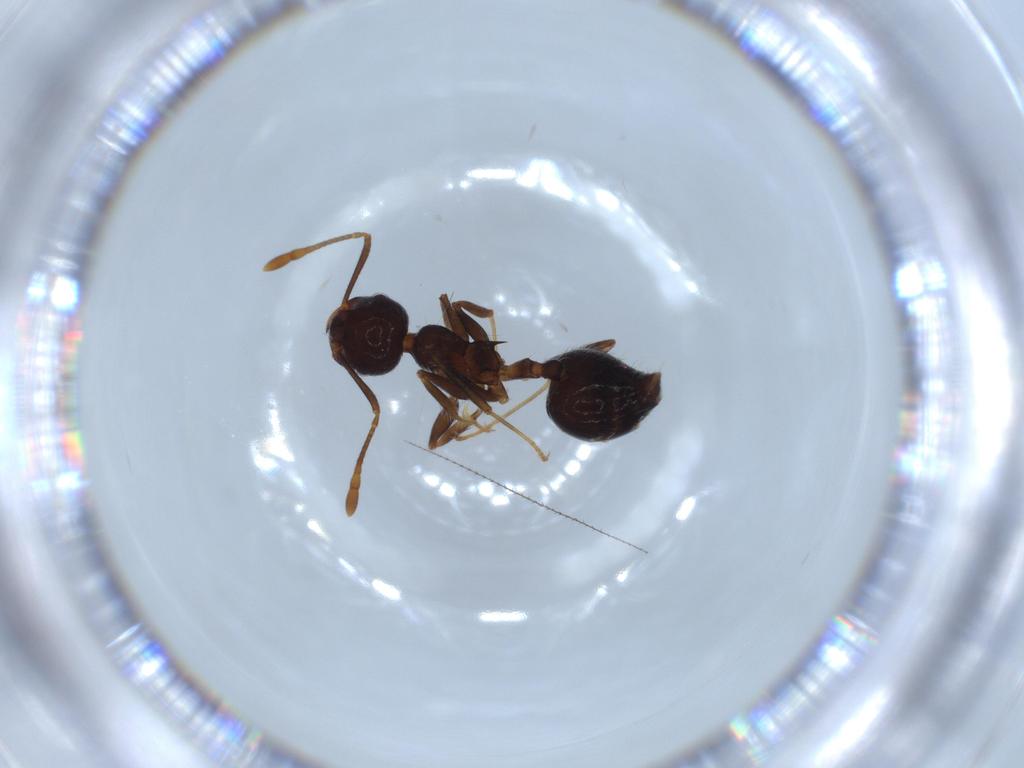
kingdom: Animalia
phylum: Arthropoda
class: Insecta
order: Hymenoptera
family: Formicidae
